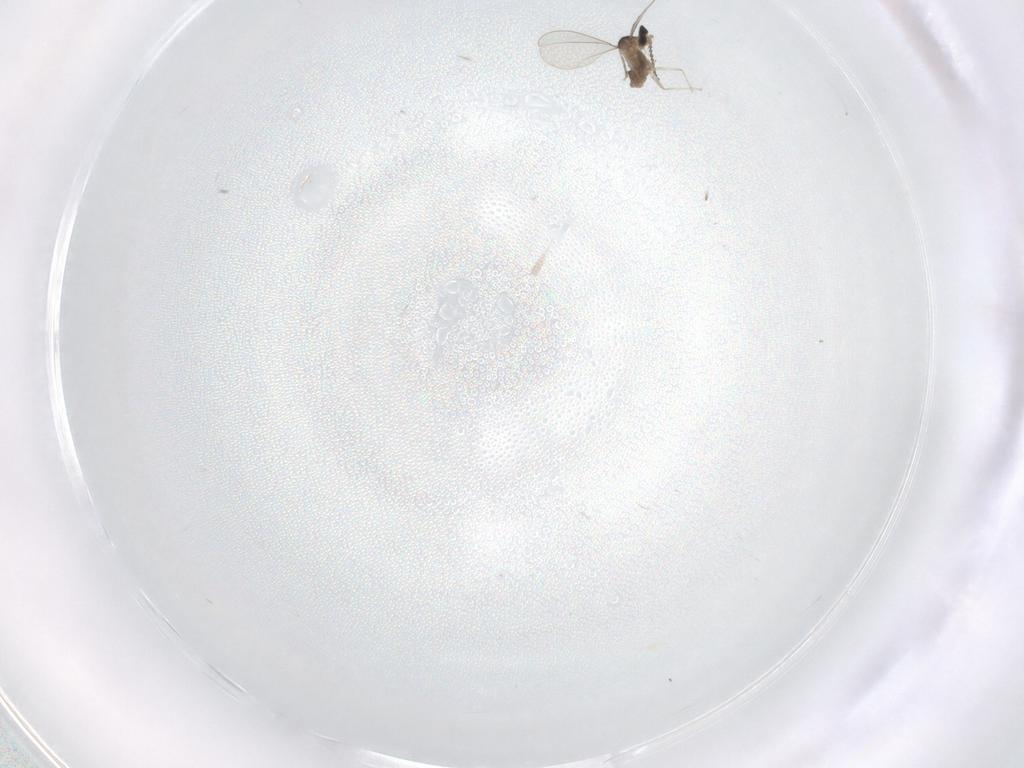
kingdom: Animalia
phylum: Arthropoda
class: Insecta
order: Diptera
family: Cecidomyiidae
